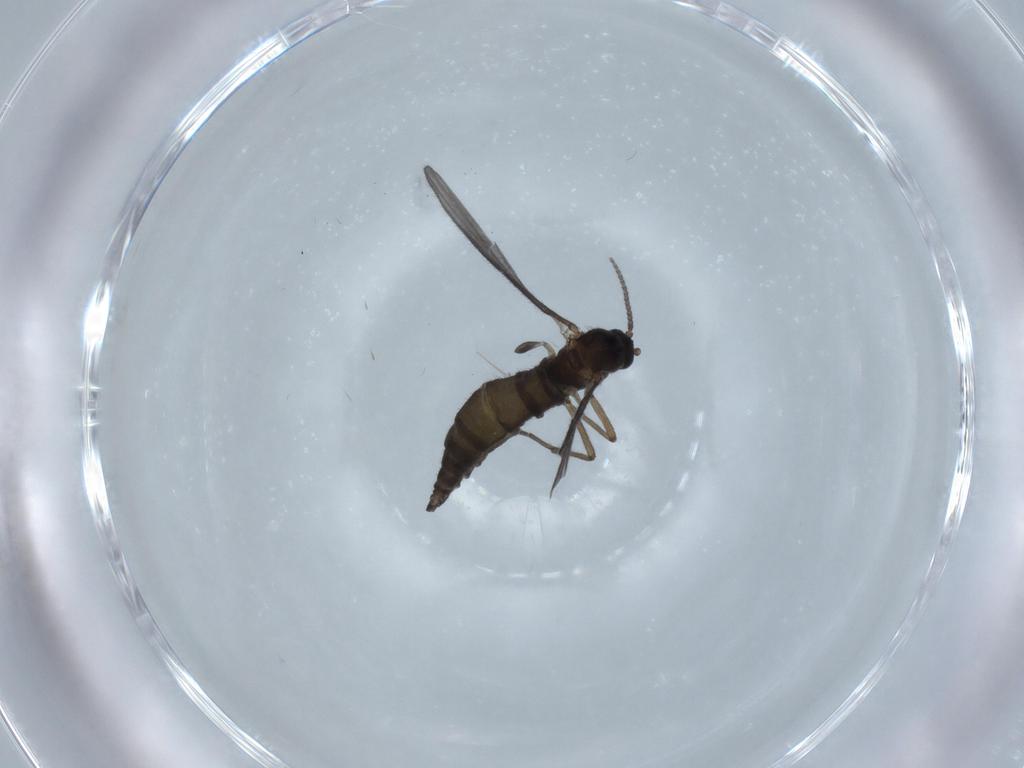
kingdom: Animalia
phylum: Arthropoda
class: Insecta
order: Diptera
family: Sciaridae
